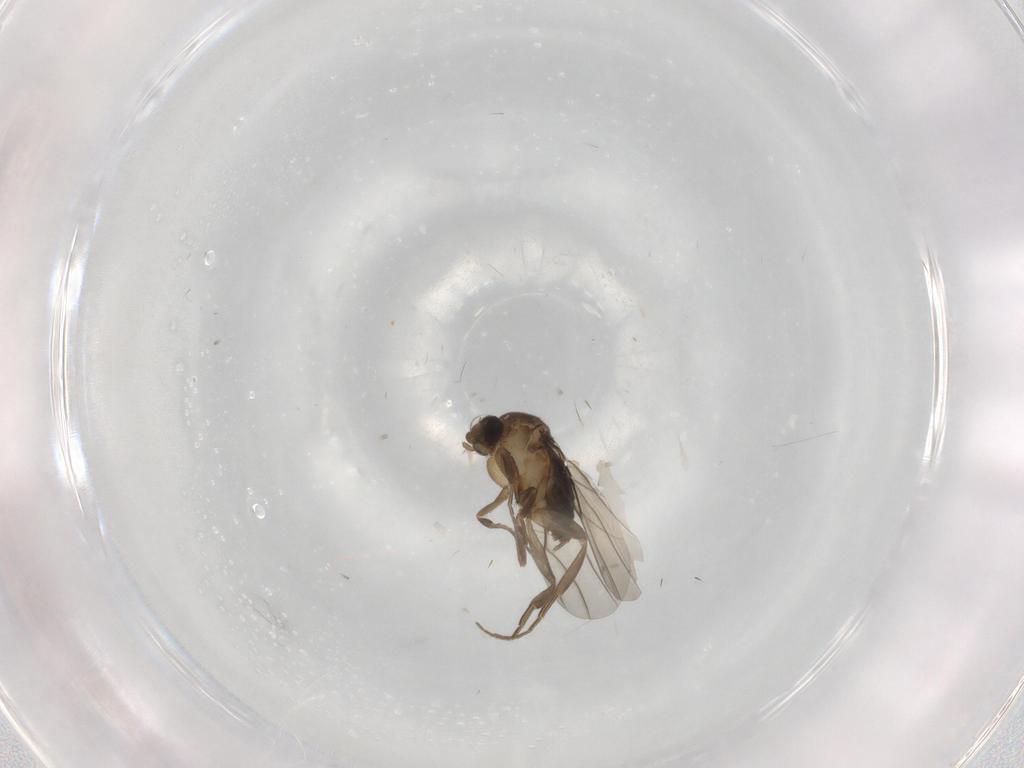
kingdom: Animalia
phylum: Arthropoda
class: Insecta
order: Diptera
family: Phoridae
